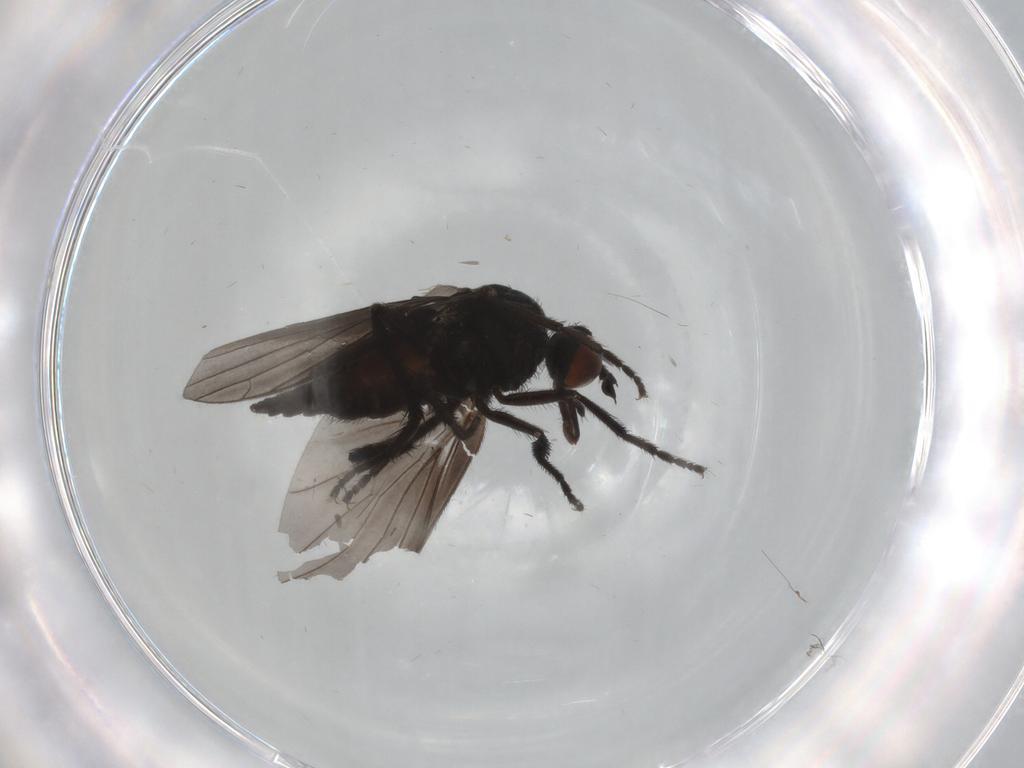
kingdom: Animalia
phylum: Arthropoda
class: Insecta
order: Diptera
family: Empididae
